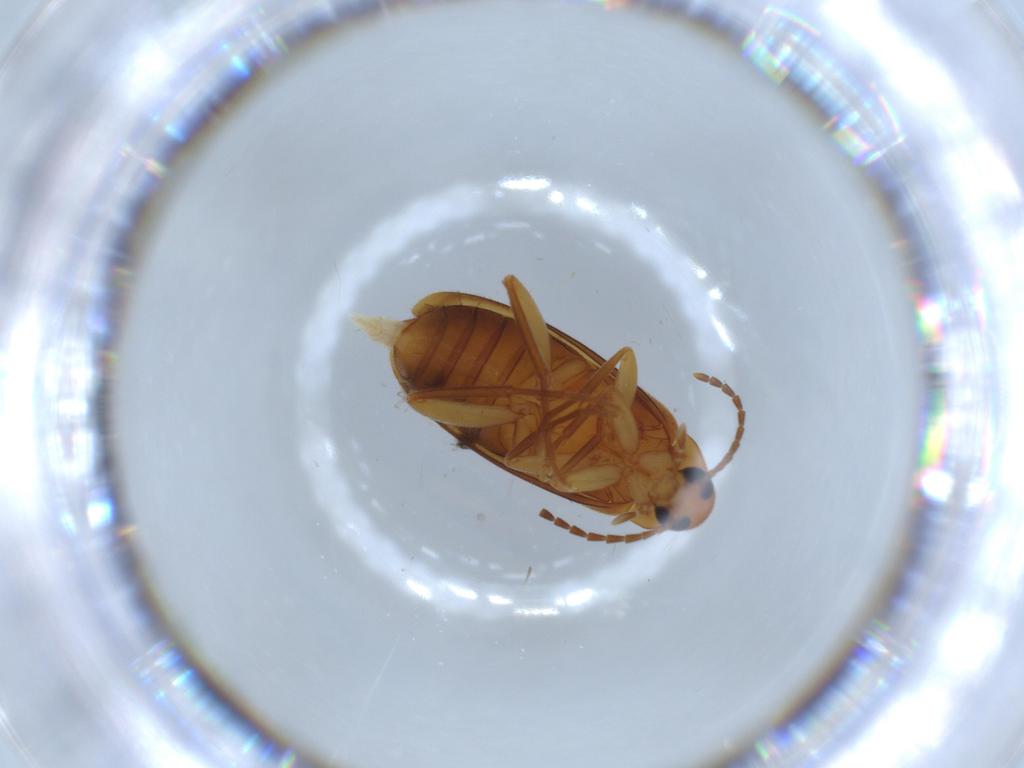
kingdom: Animalia
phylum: Arthropoda
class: Insecta
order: Coleoptera
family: Scraptiidae
